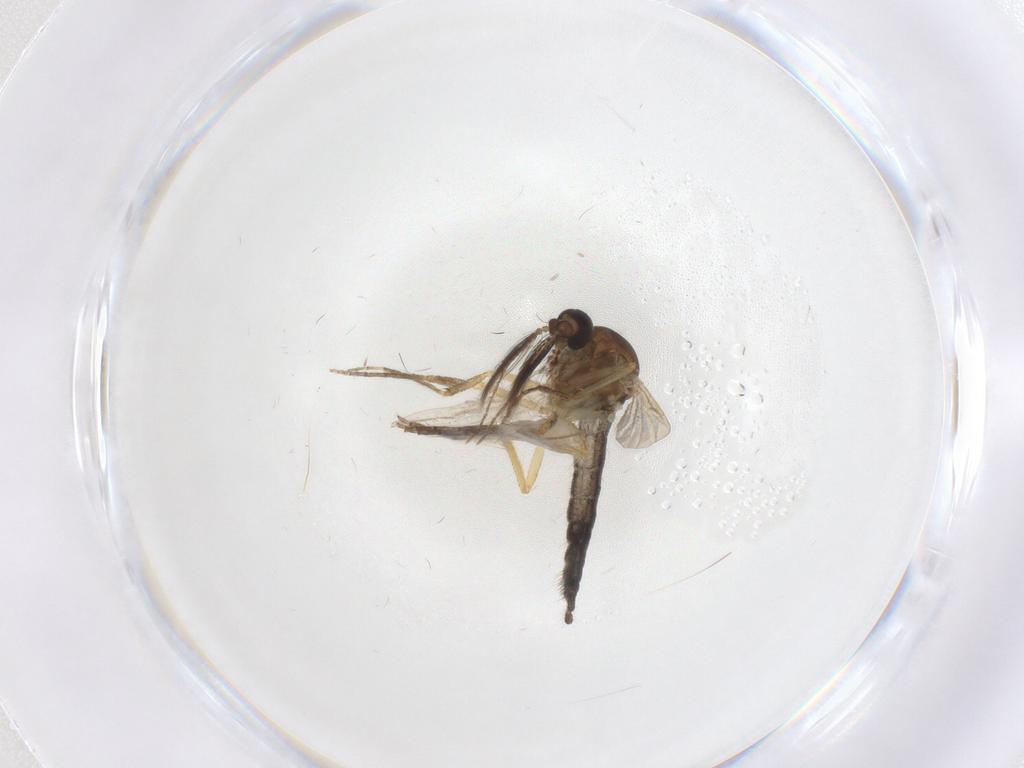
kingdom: Animalia
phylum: Arthropoda
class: Insecta
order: Diptera
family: Ceratopogonidae
